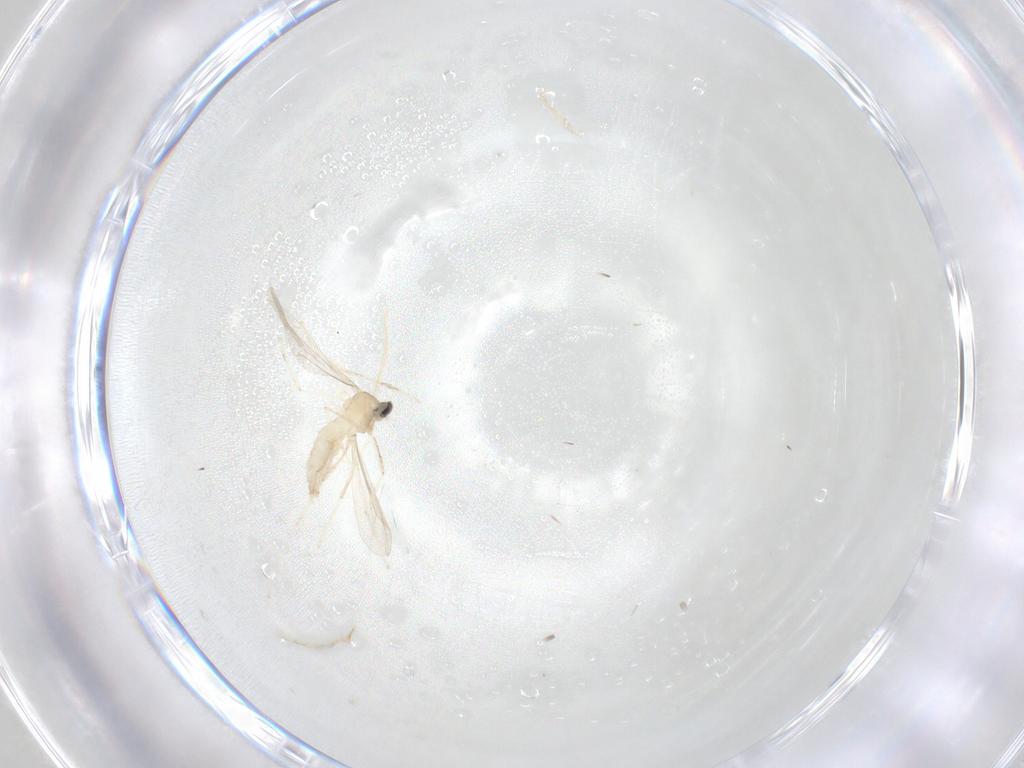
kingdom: Animalia
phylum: Arthropoda
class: Insecta
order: Diptera
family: Cecidomyiidae
